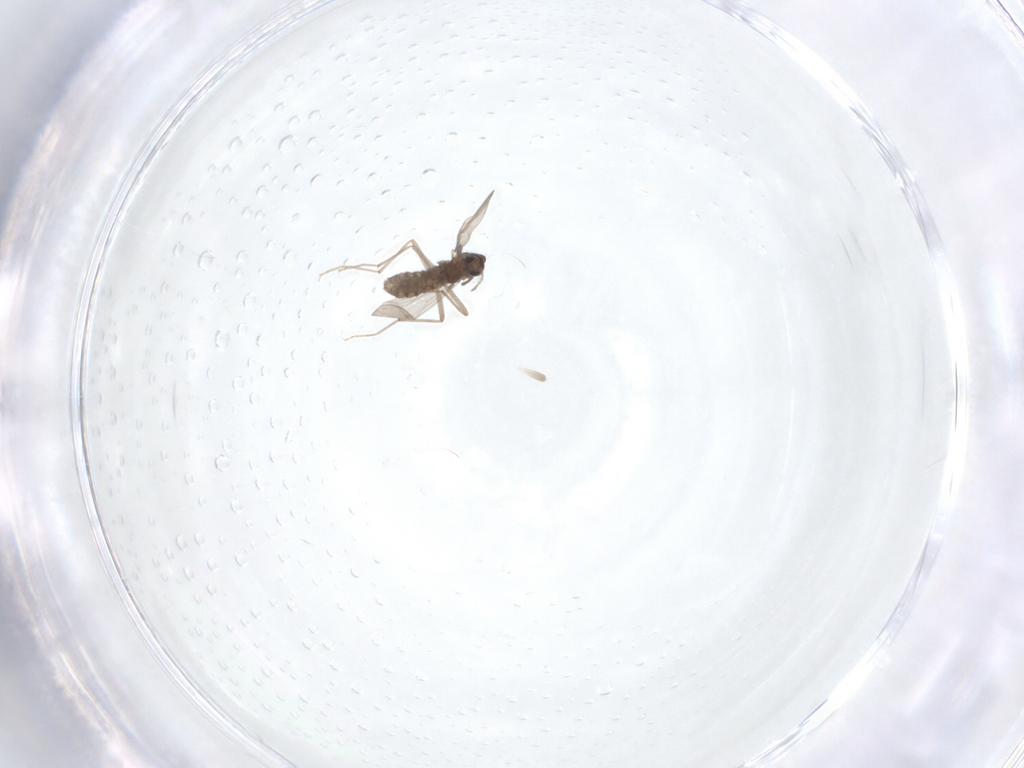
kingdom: Animalia
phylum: Arthropoda
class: Insecta
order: Diptera
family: Chironomidae
